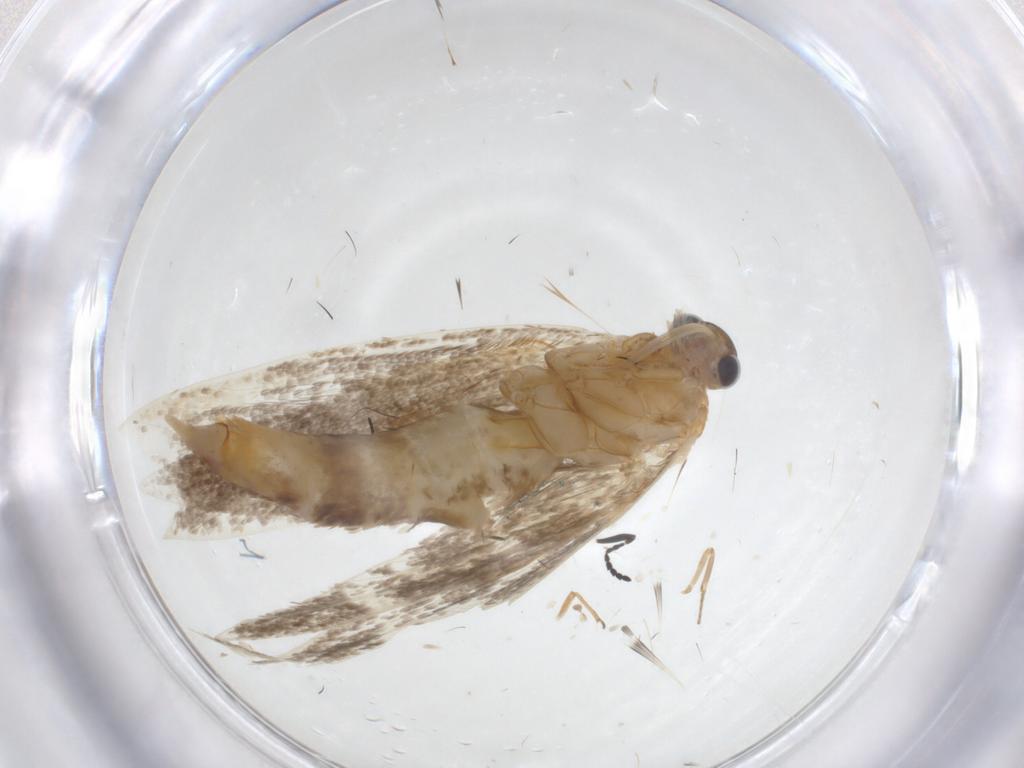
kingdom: Animalia
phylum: Arthropoda
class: Insecta
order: Lepidoptera
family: Oecophoridae
